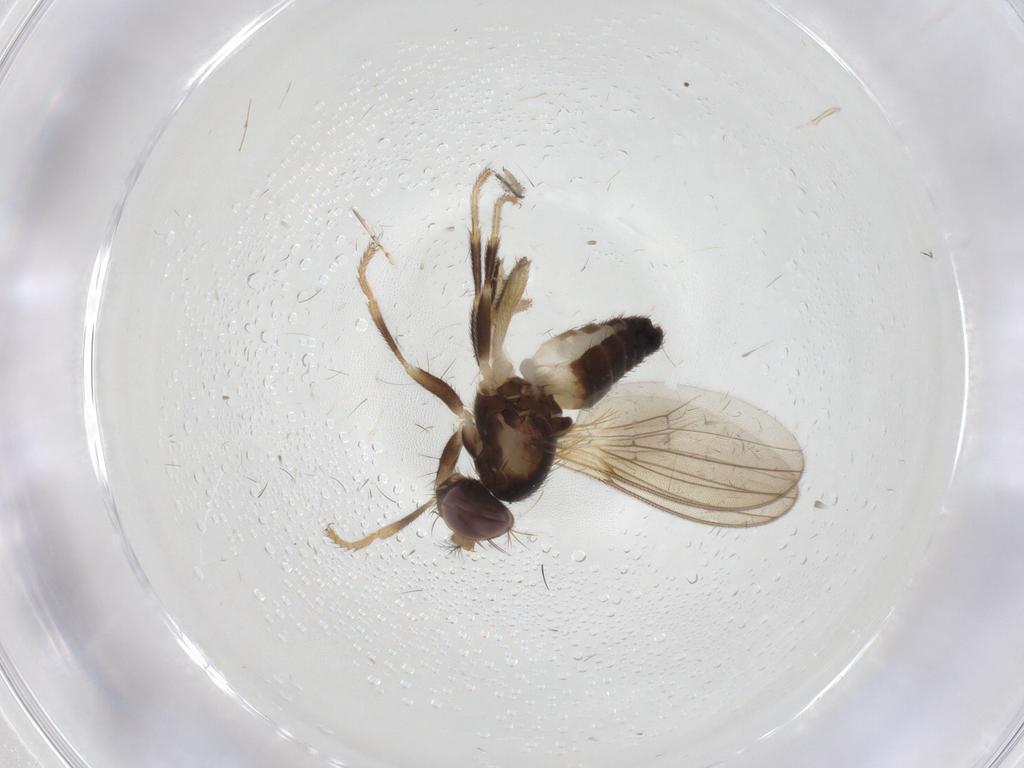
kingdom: Animalia
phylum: Arthropoda
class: Insecta
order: Diptera
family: Periscelididae
